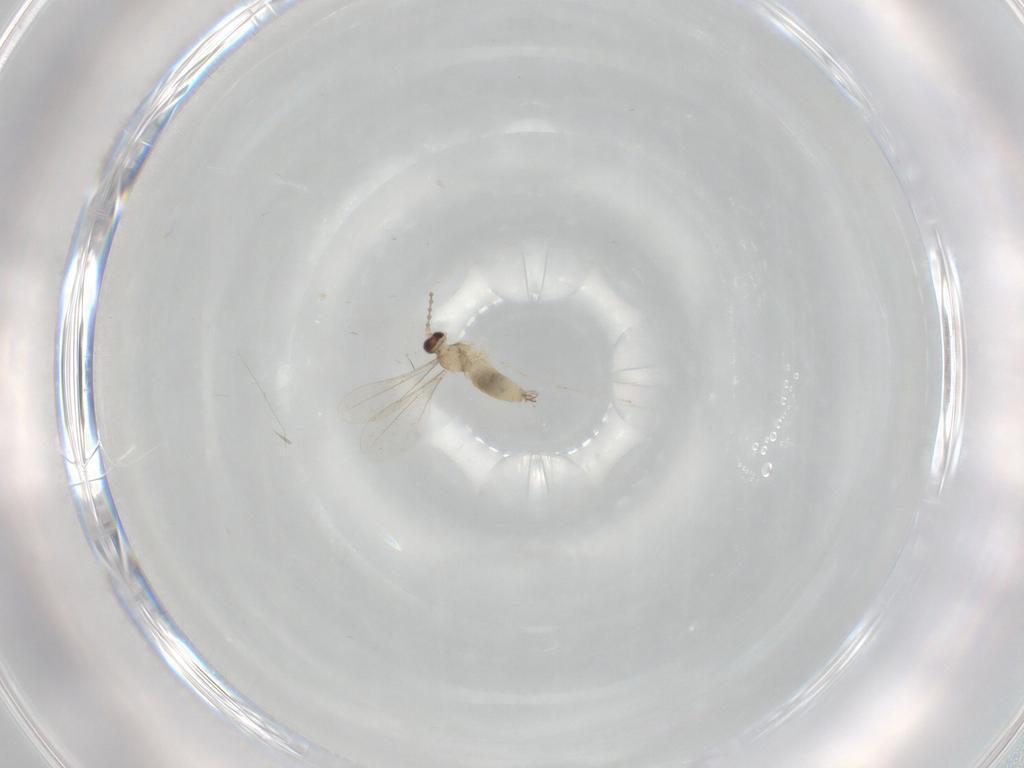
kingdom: Animalia
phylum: Arthropoda
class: Insecta
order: Diptera
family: Cecidomyiidae
